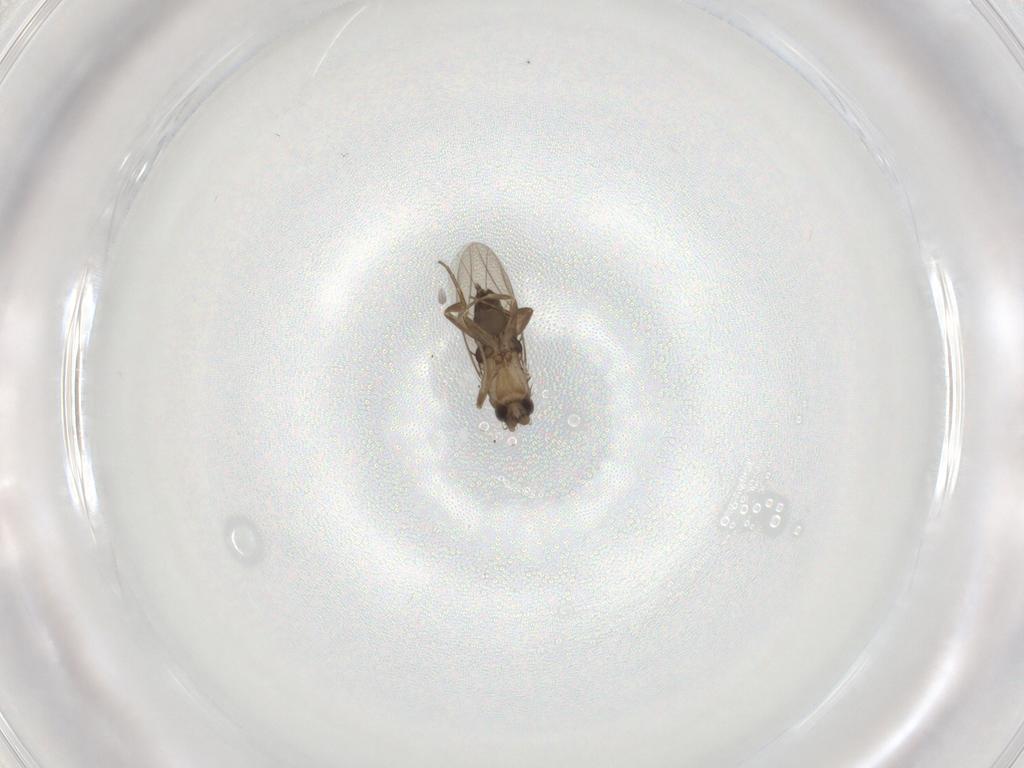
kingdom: Animalia
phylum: Arthropoda
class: Insecta
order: Diptera
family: Phoridae
